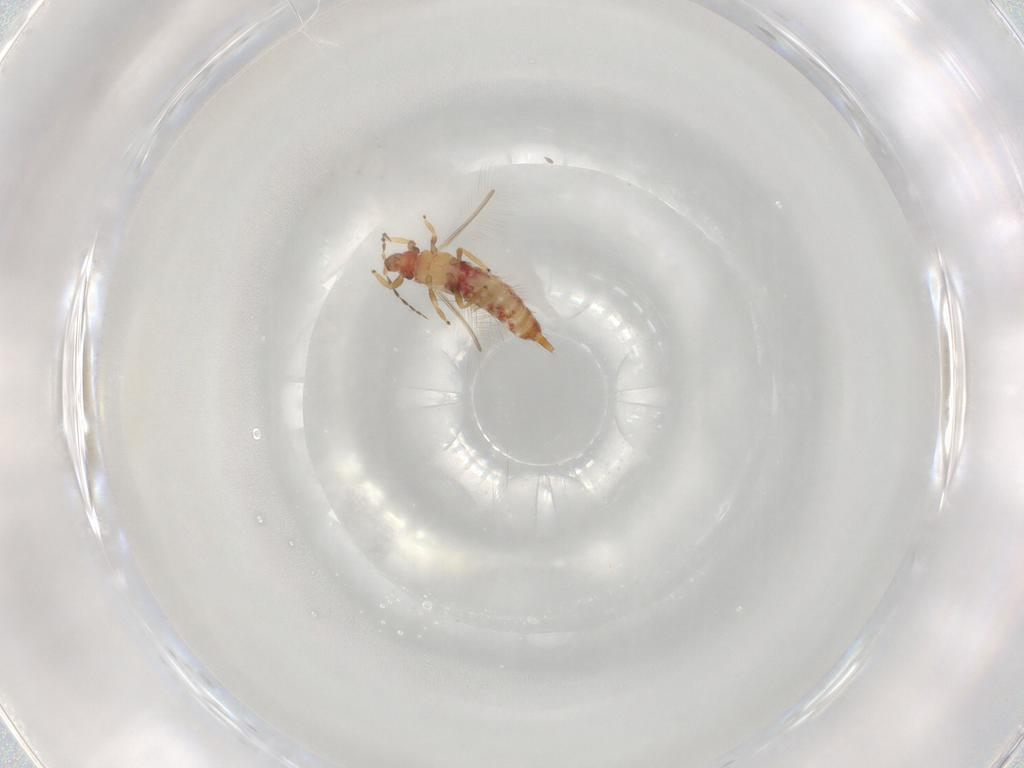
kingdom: Animalia
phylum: Arthropoda
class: Insecta
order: Thysanoptera
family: Phlaeothripidae
